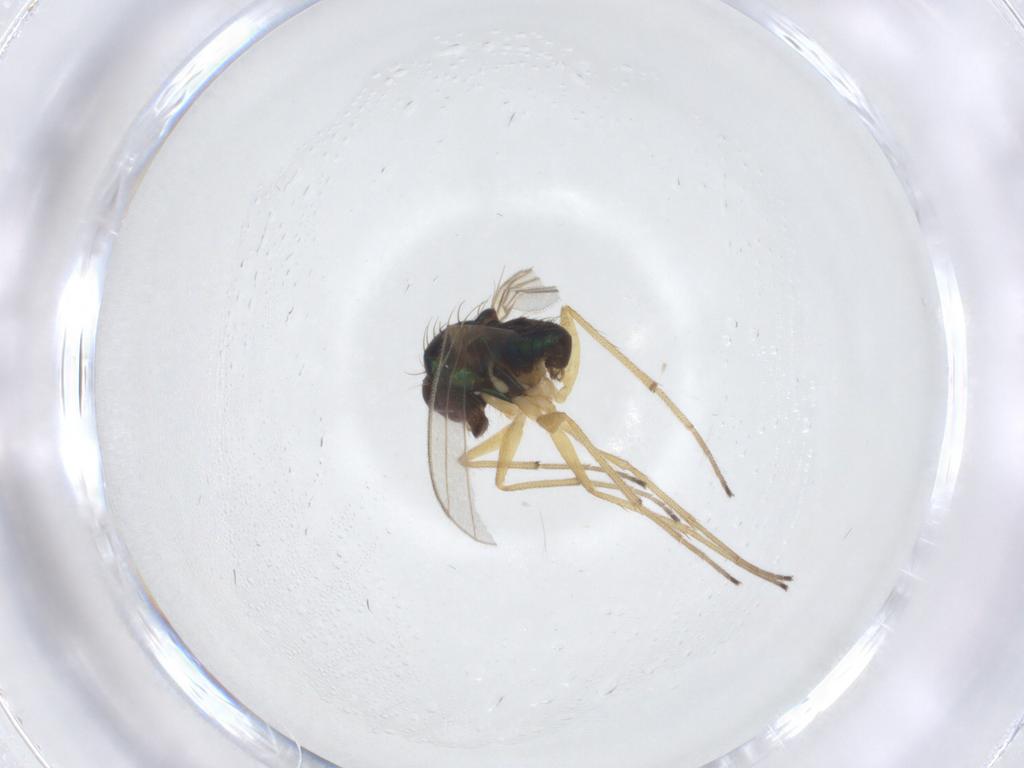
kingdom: Animalia
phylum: Arthropoda
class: Insecta
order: Diptera
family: Dolichopodidae
